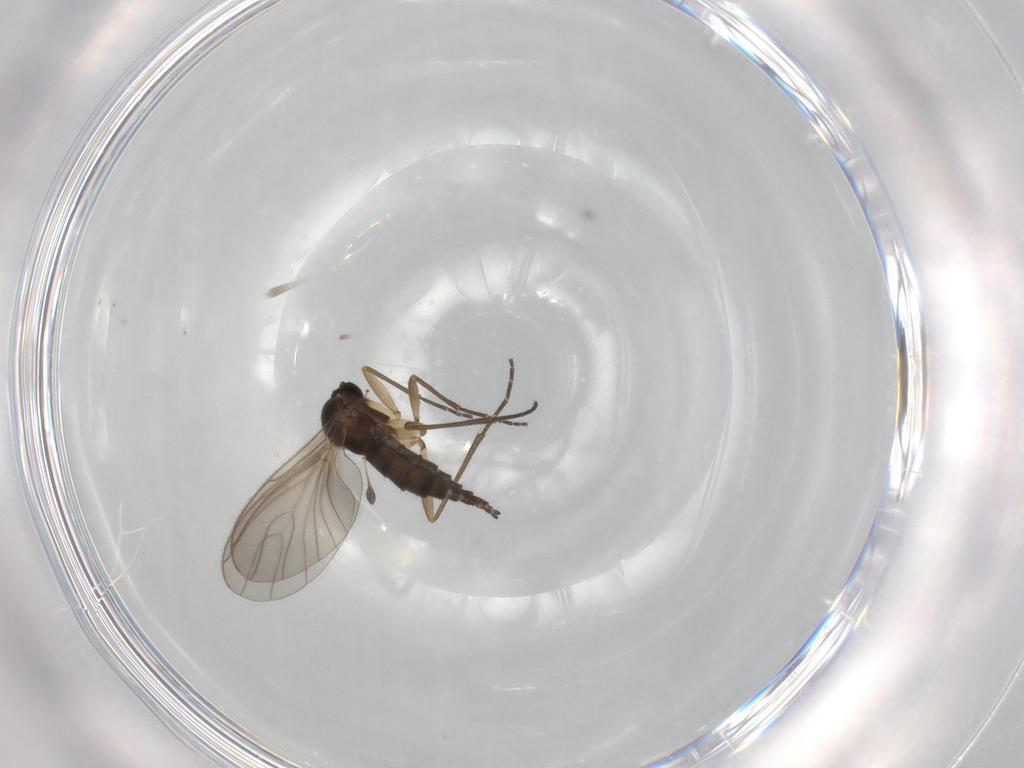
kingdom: Animalia
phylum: Arthropoda
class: Insecta
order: Diptera
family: Sciaridae
